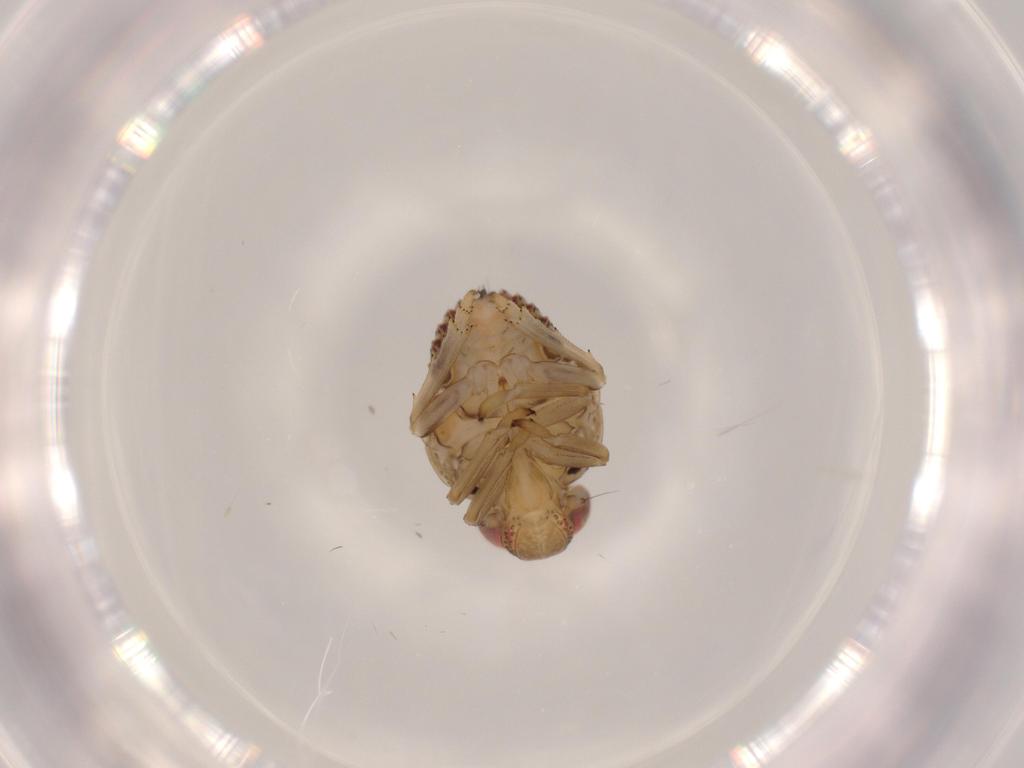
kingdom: Animalia
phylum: Arthropoda
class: Insecta
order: Hemiptera
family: Issidae
